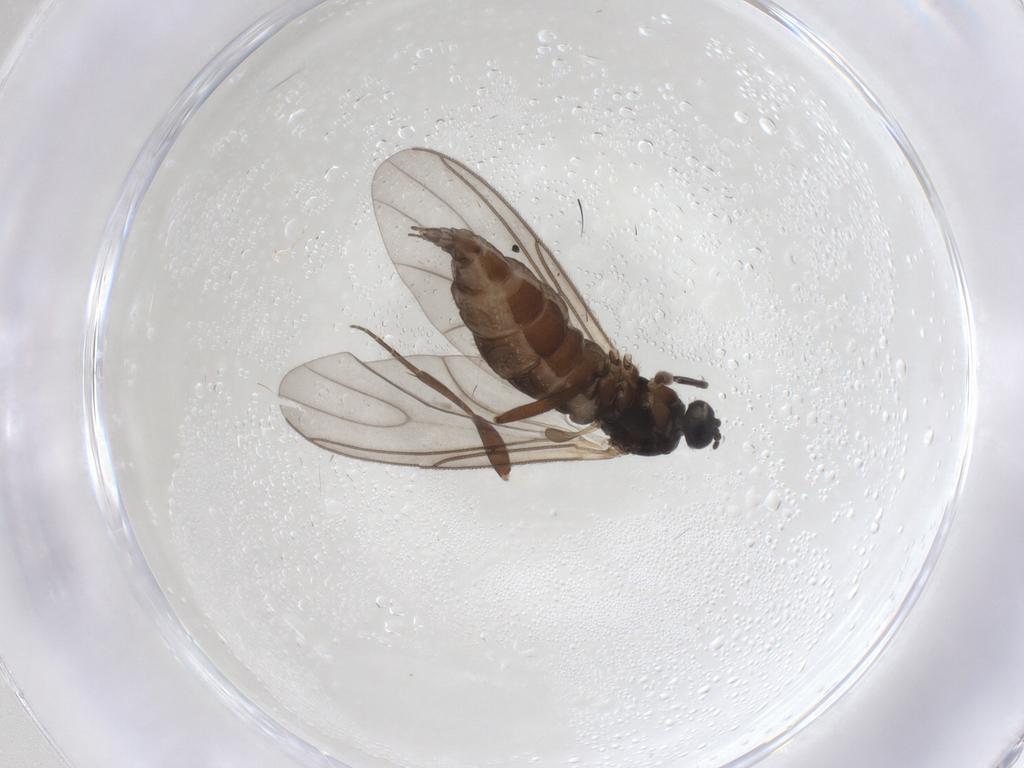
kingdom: Animalia
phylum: Arthropoda
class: Insecta
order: Diptera
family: Sciaridae
